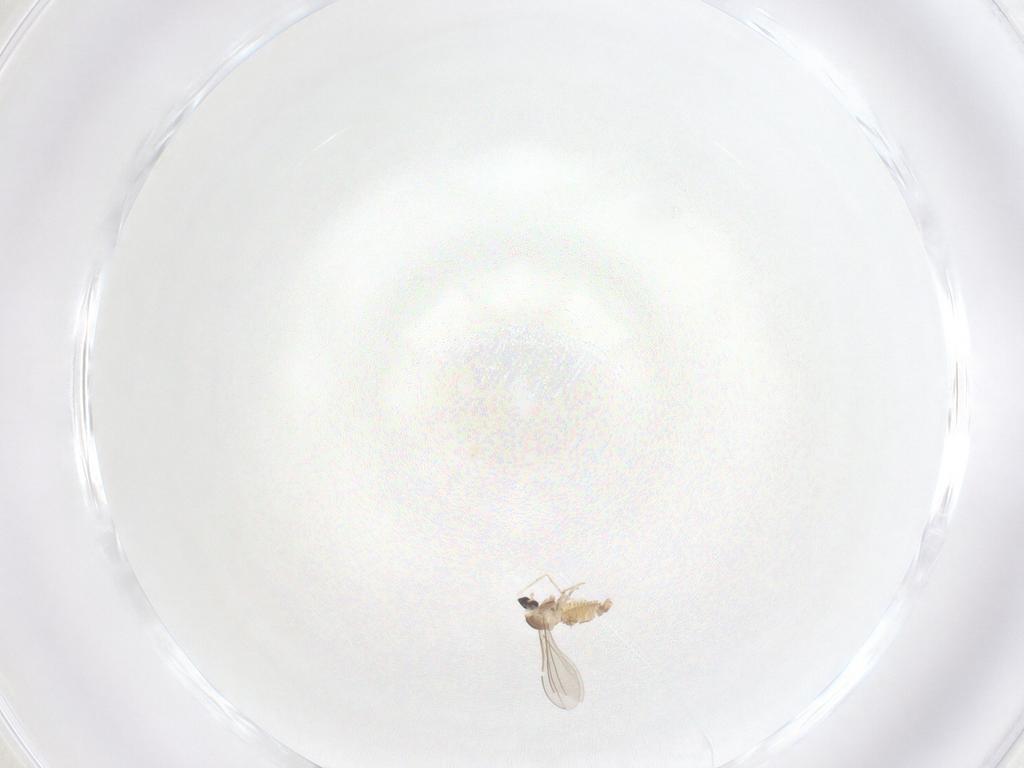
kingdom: Animalia
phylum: Arthropoda
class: Insecta
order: Diptera
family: Cecidomyiidae
